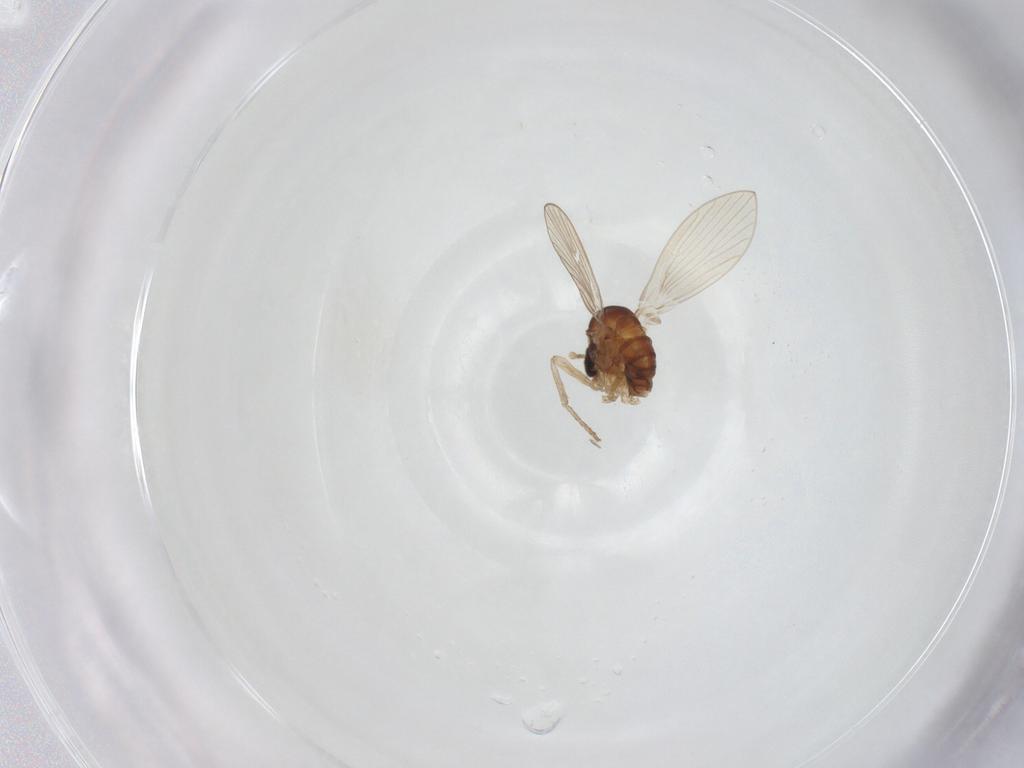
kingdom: Animalia
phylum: Arthropoda
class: Insecta
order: Diptera
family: Psychodidae
